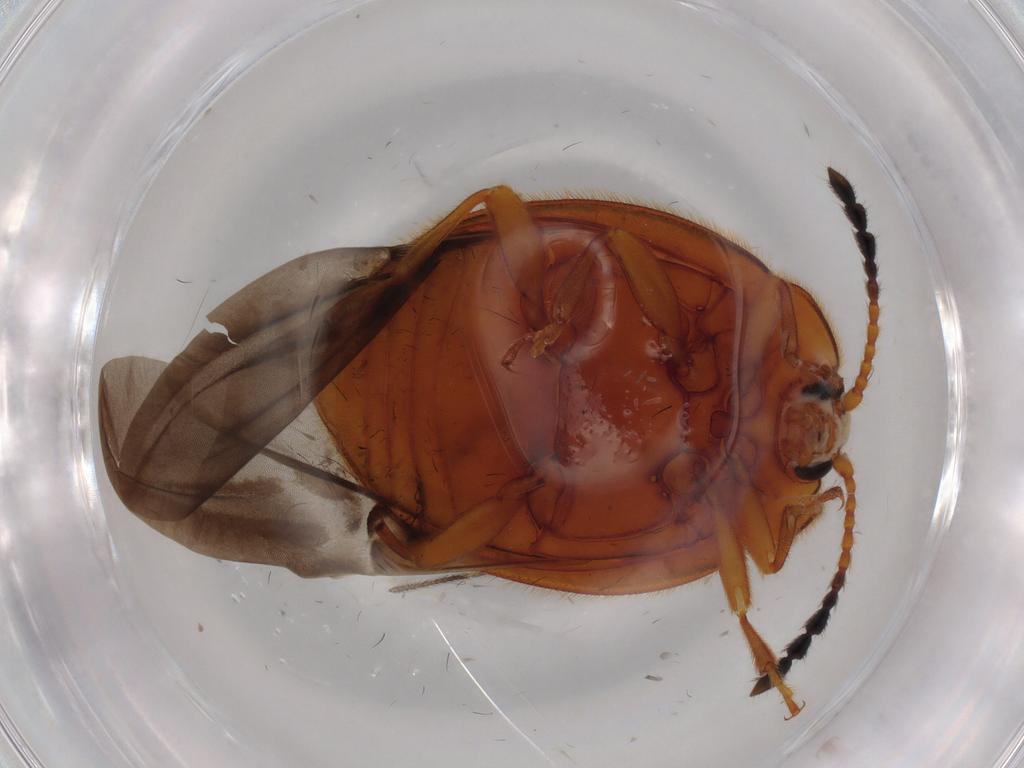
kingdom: Animalia
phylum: Arthropoda
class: Insecta
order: Coleoptera
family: Endomychidae
